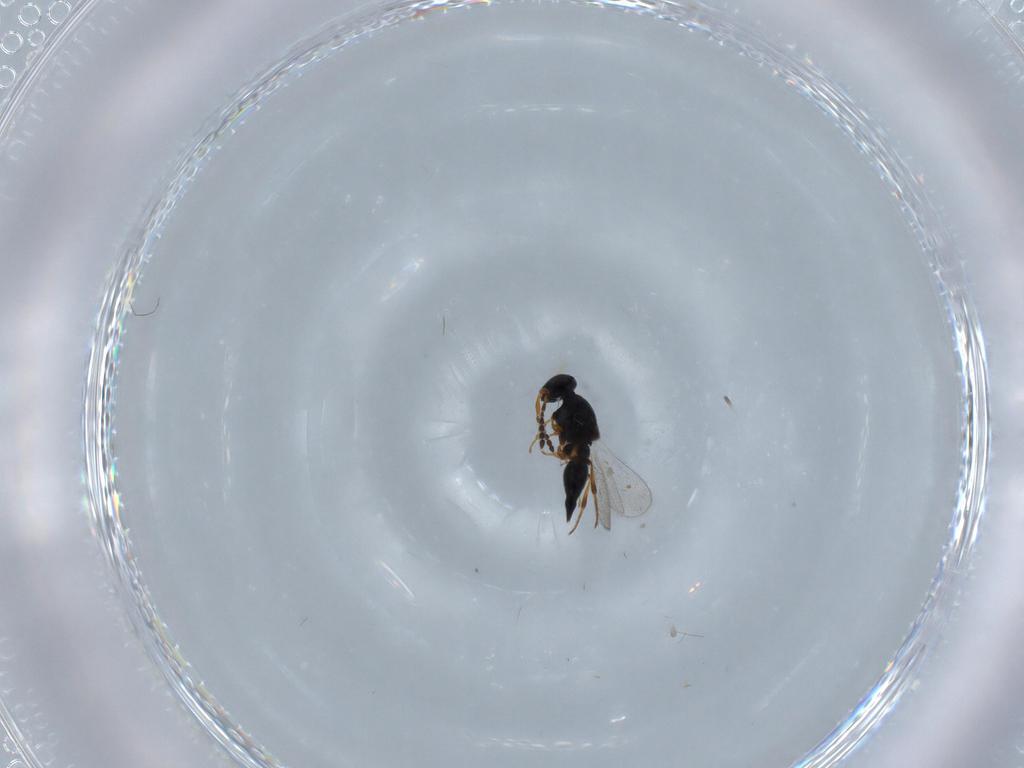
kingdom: Animalia
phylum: Arthropoda
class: Insecta
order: Hymenoptera
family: Platygastridae
